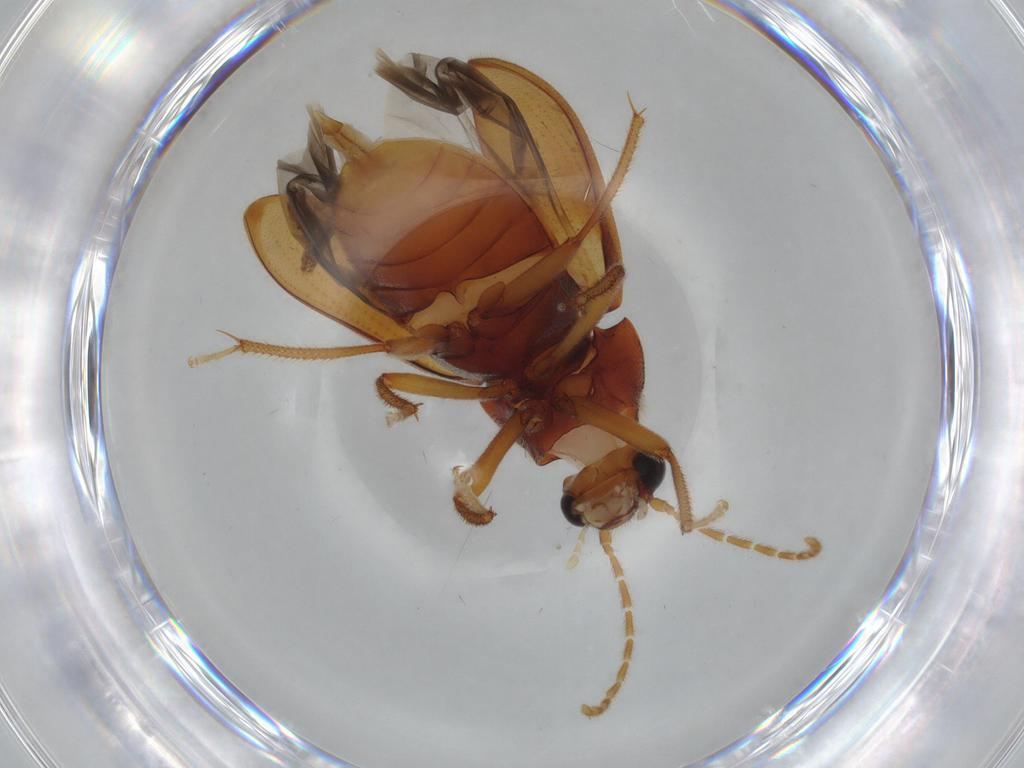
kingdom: Animalia
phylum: Arthropoda
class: Insecta
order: Coleoptera
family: Ptilodactylidae
